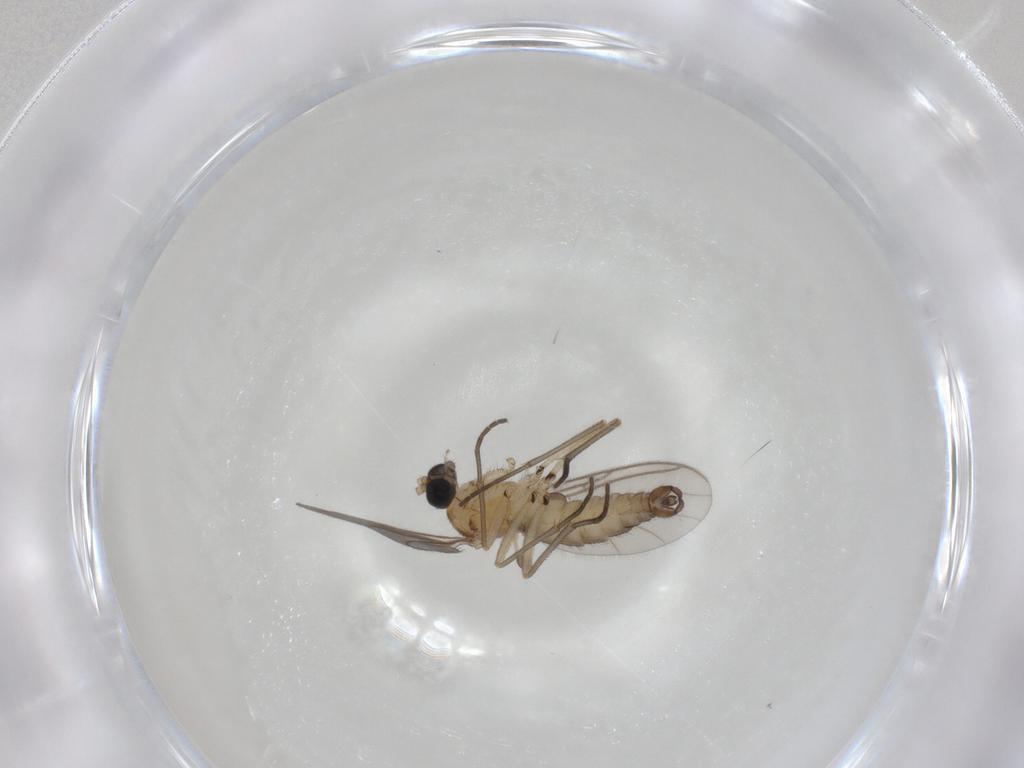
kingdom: Animalia
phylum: Arthropoda
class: Insecta
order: Diptera
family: Sciaridae
